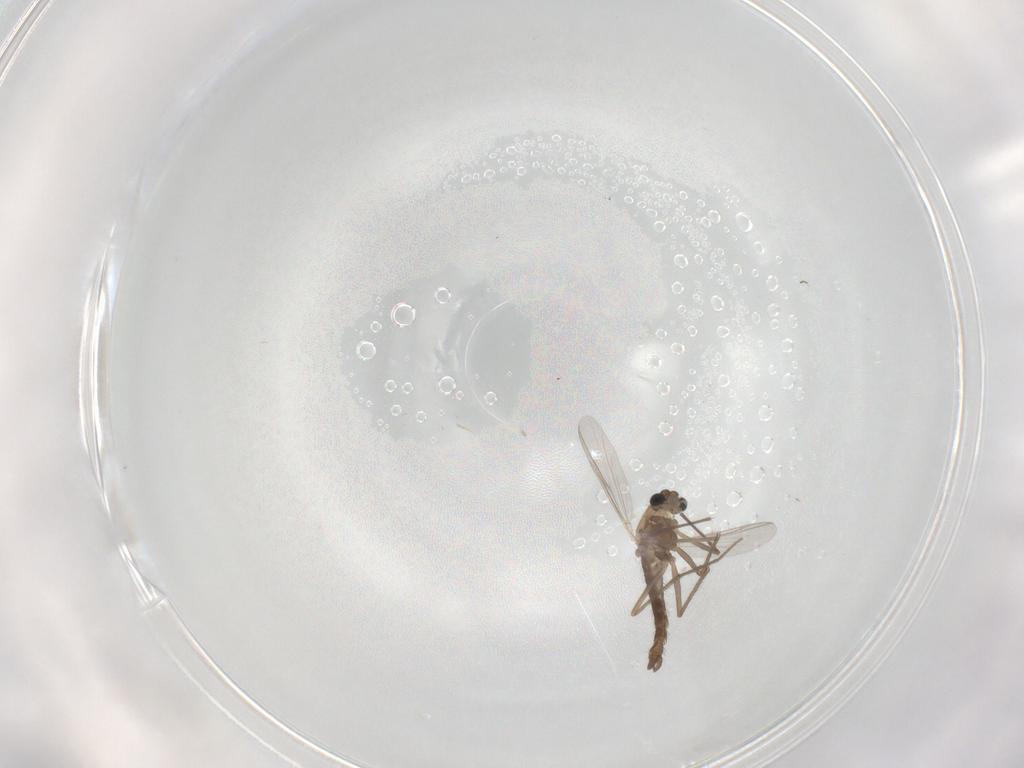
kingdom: Animalia
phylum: Arthropoda
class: Insecta
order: Diptera
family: Chironomidae
